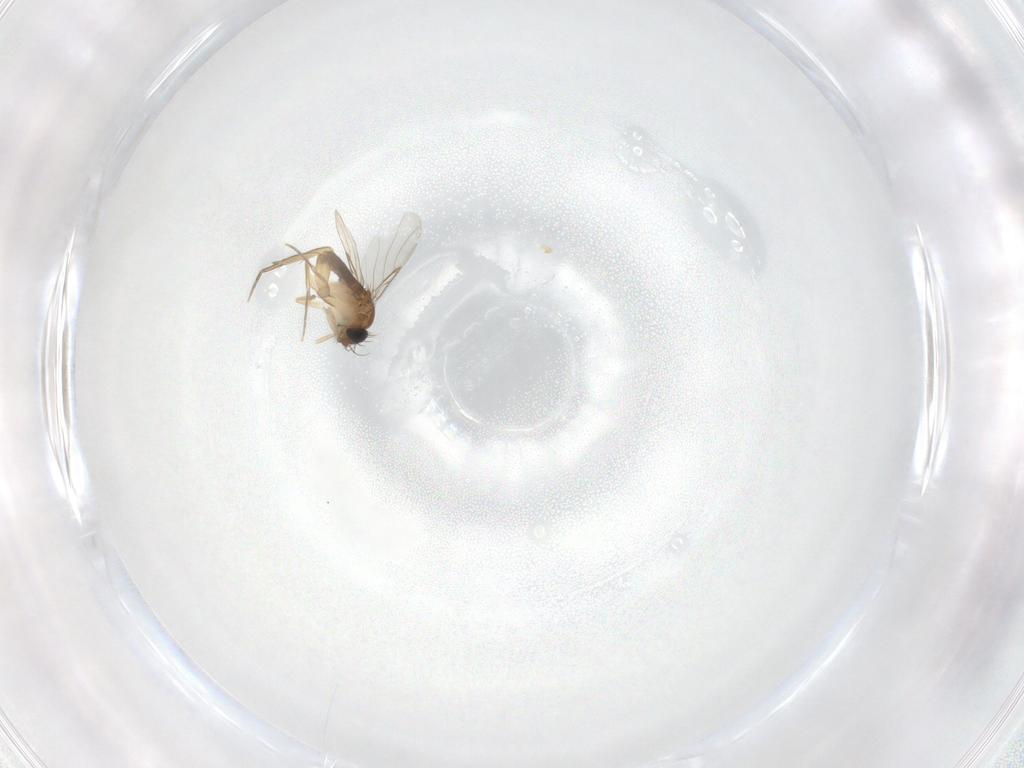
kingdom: Animalia
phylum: Arthropoda
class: Insecta
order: Diptera
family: Phoridae
